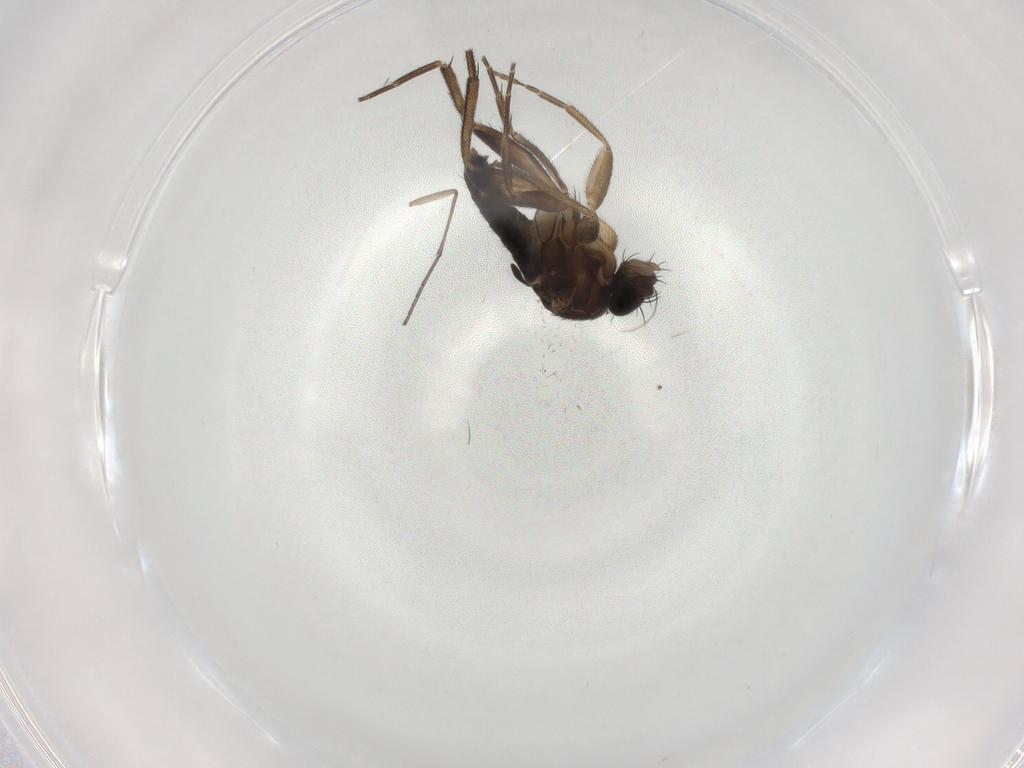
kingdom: Animalia
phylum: Arthropoda
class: Insecta
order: Diptera
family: Phoridae
